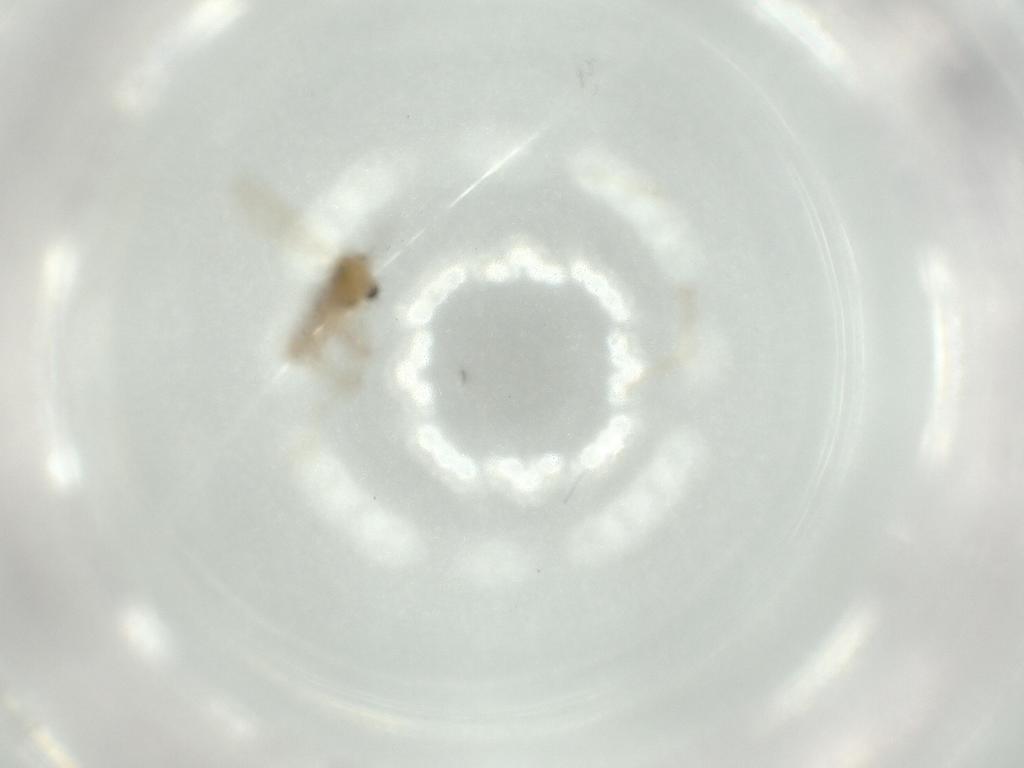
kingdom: Animalia
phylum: Arthropoda
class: Insecta
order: Diptera
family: Chironomidae
